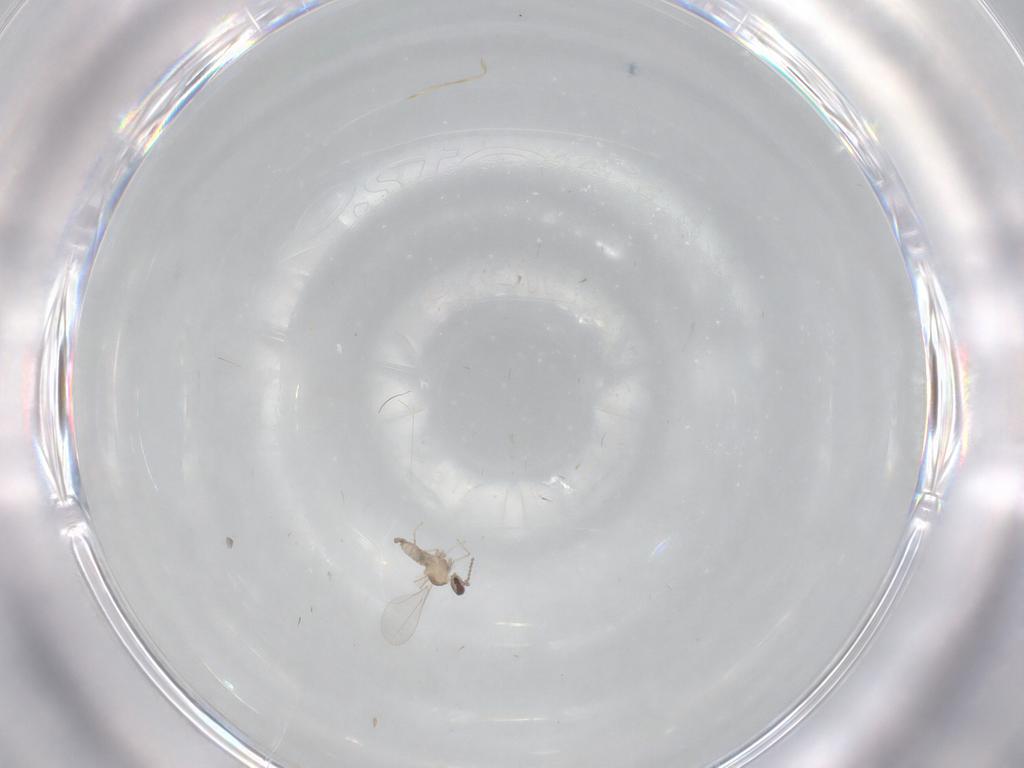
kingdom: Animalia
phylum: Arthropoda
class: Insecta
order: Diptera
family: Cecidomyiidae
